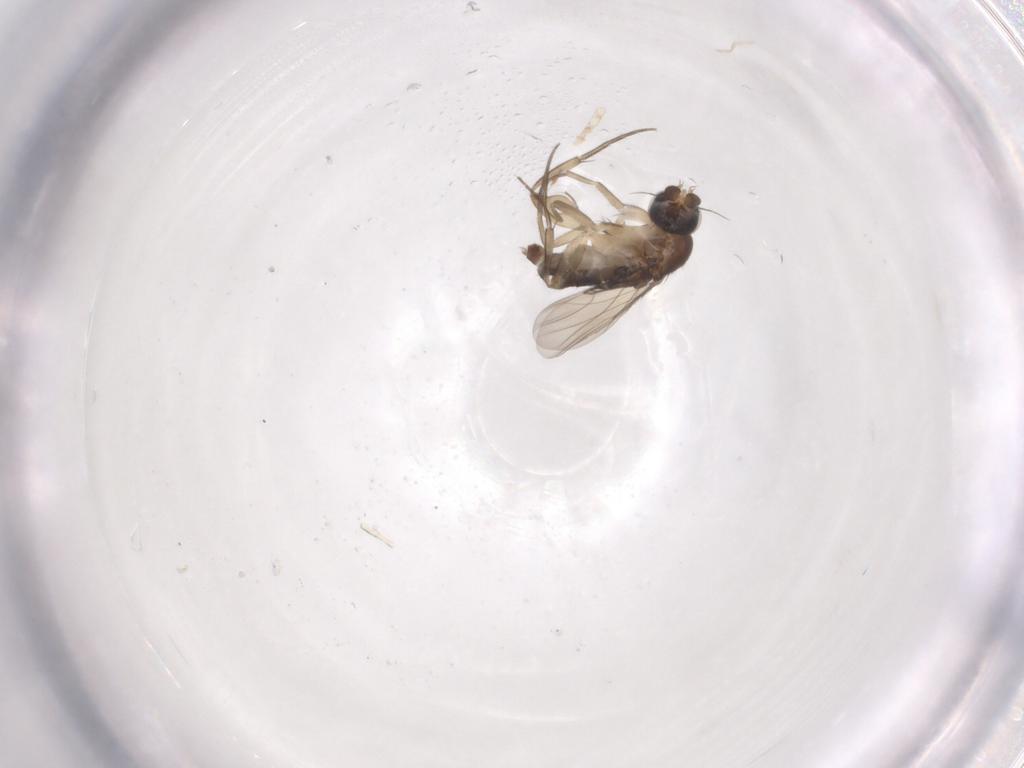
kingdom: Animalia
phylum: Arthropoda
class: Insecta
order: Diptera
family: Phoridae
